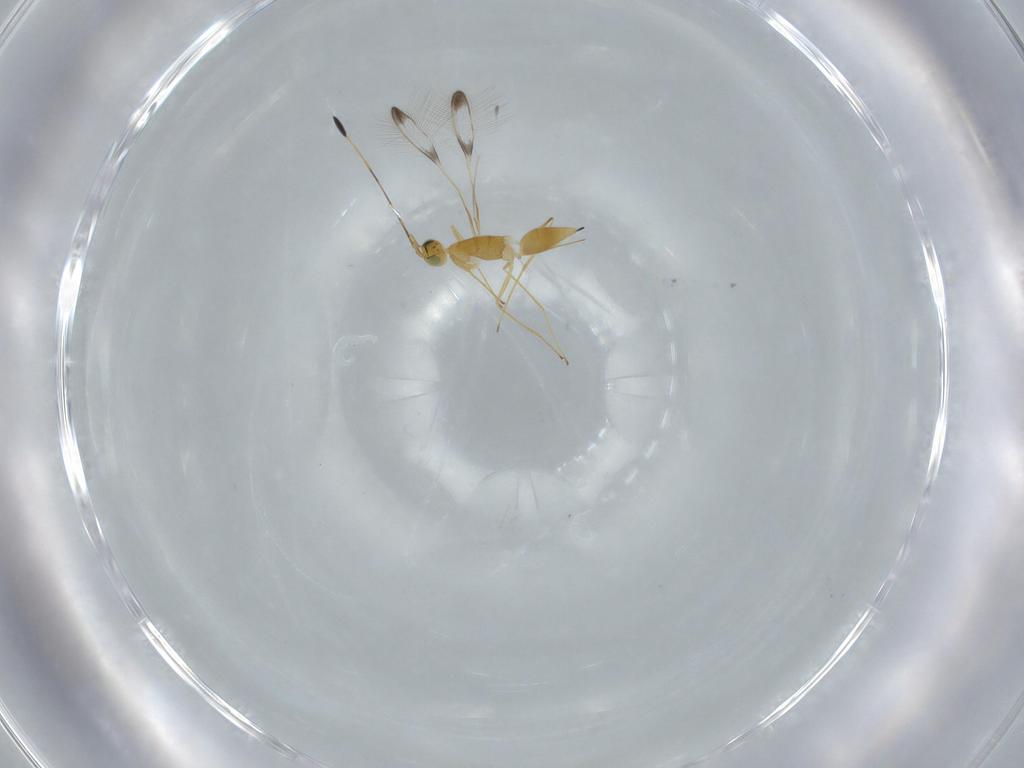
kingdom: Animalia
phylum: Arthropoda
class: Insecta
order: Hymenoptera
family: Mymaridae
